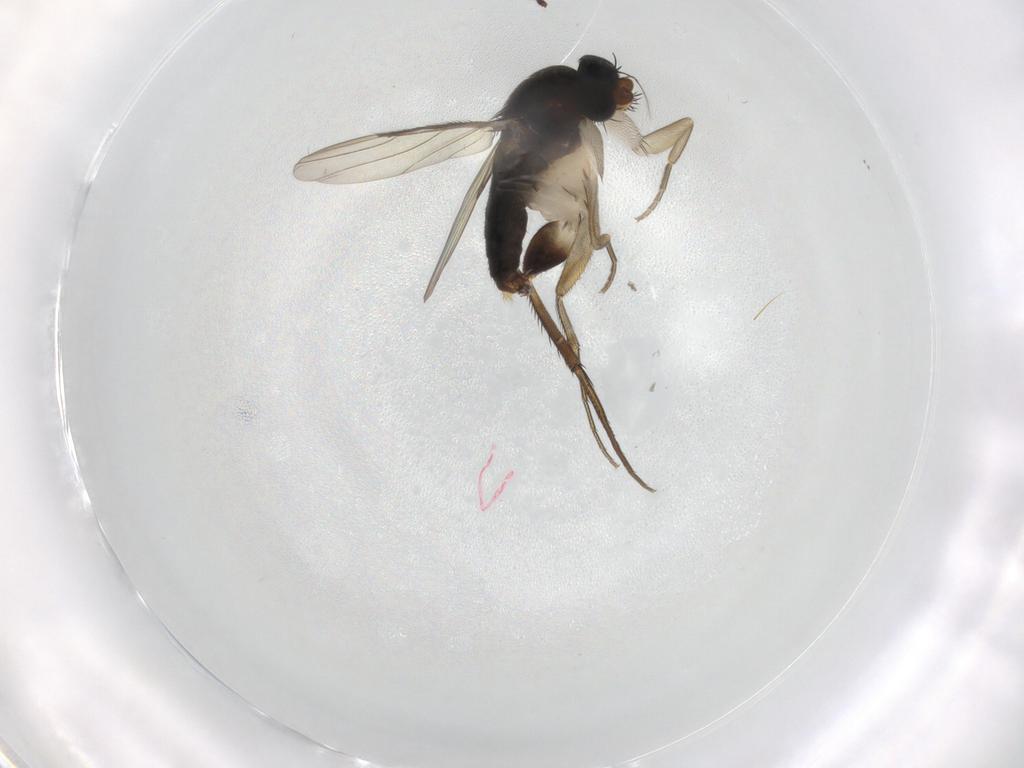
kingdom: Animalia
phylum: Arthropoda
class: Insecta
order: Diptera
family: Phoridae
